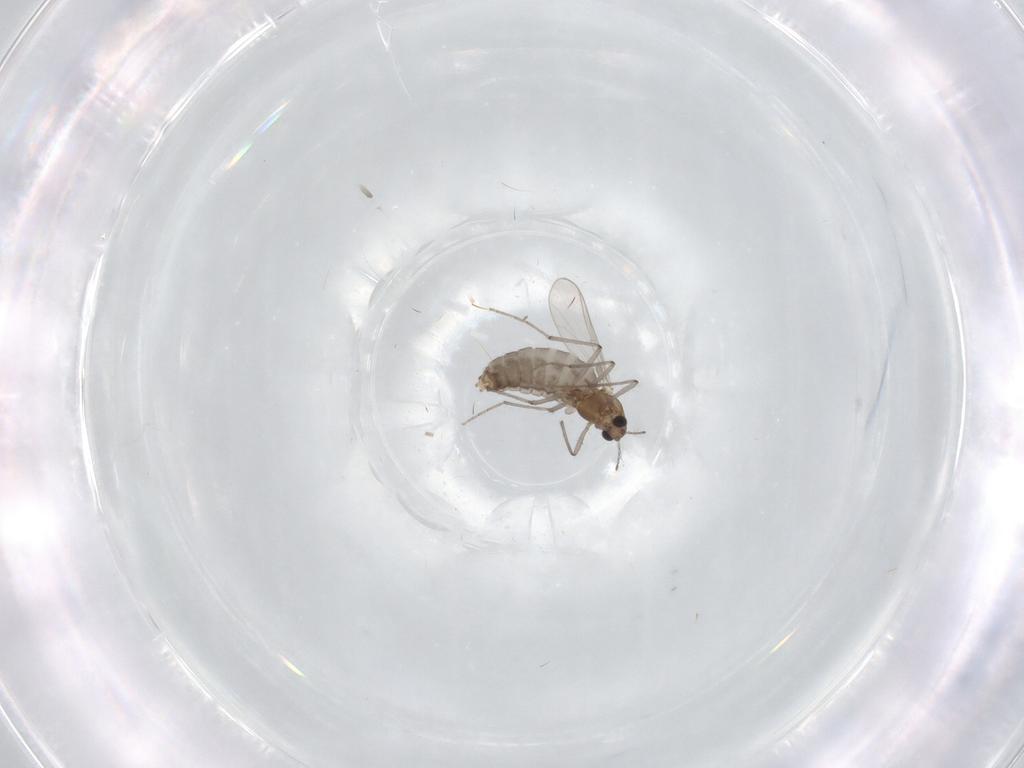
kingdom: Animalia
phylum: Arthropoda
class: Insecta
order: Diptera
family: Chironomidae
